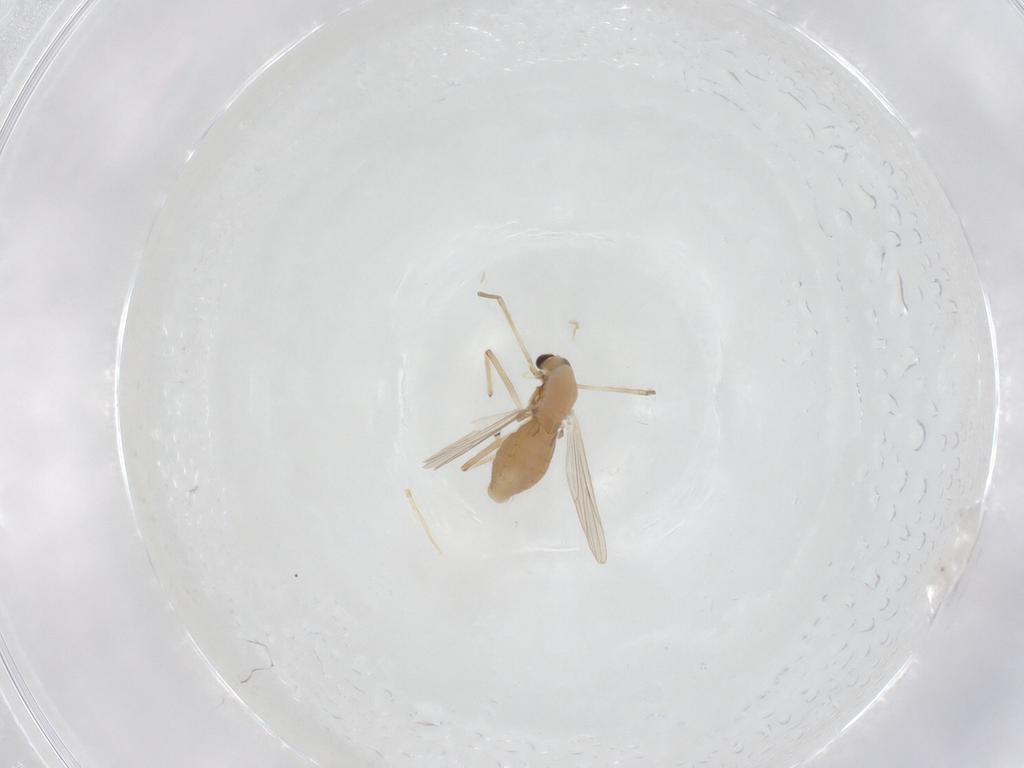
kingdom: Animalia
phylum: Arthropoda
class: Insecta
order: Diptera
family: Chironomidae
